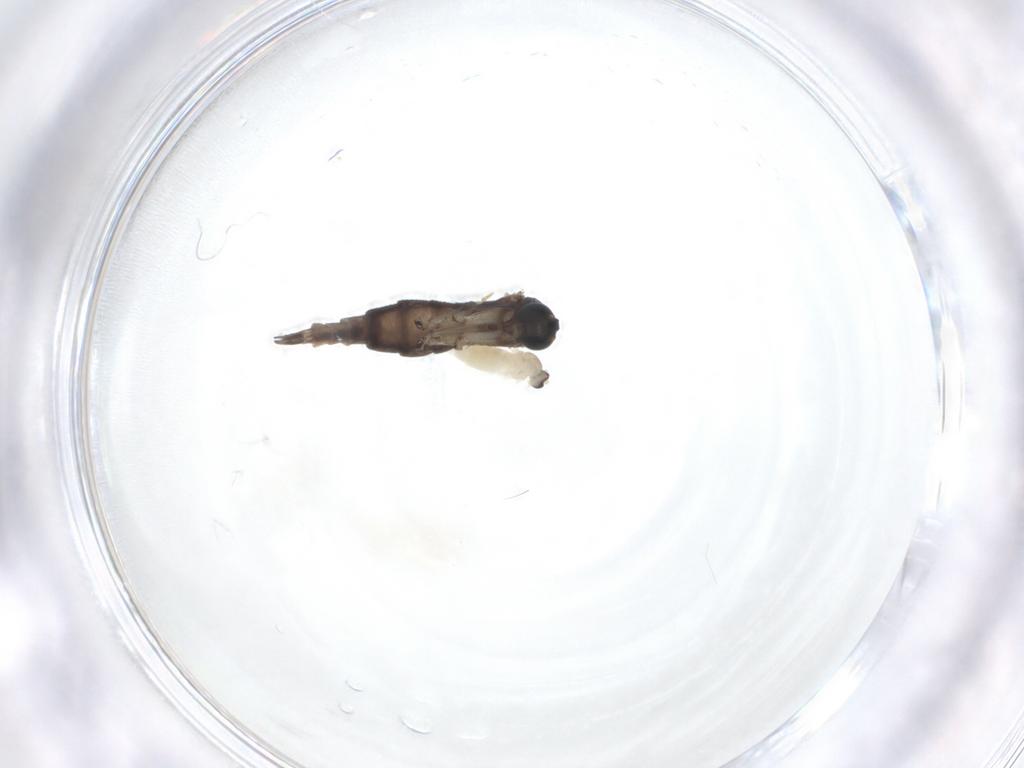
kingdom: Animalia
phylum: Arthropoda
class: Insecta
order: Diptera
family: Sciaridae
